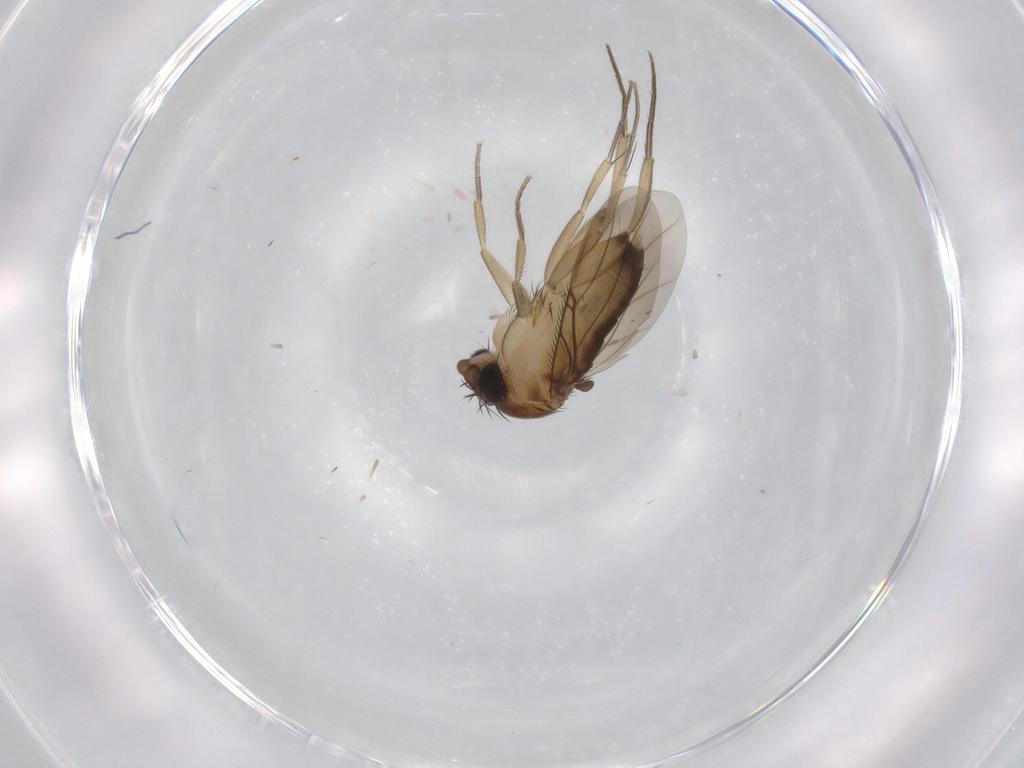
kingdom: Animalia
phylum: Arthropoda
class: Insecta
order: Diptera
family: Phoridae
